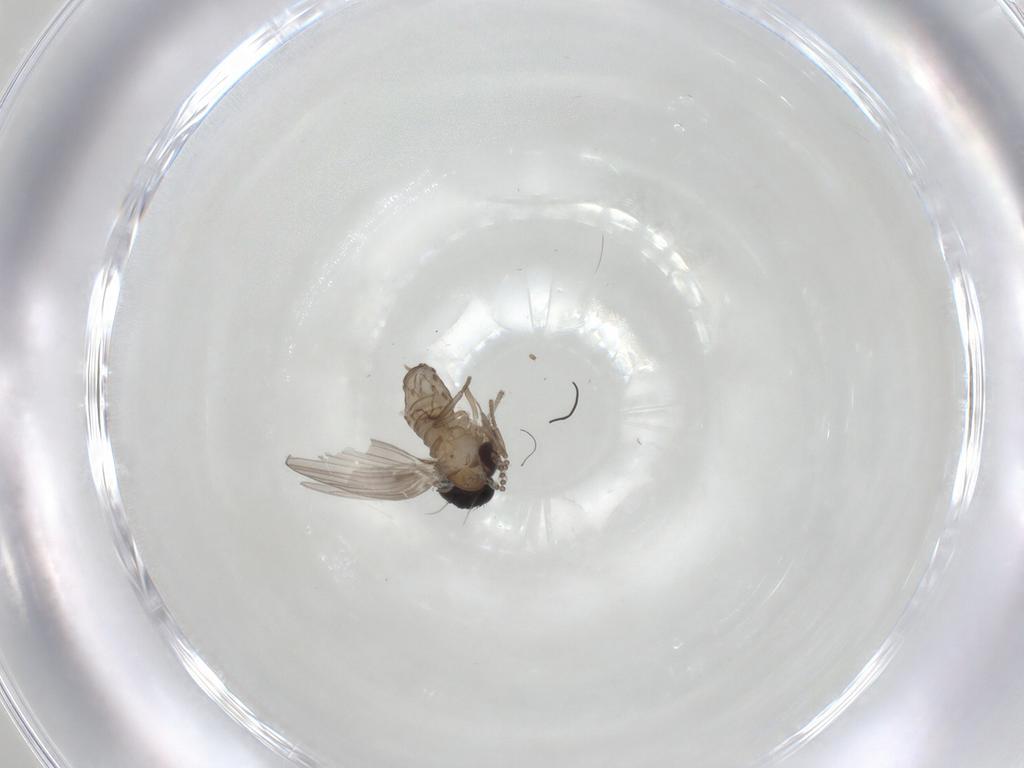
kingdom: Animalia
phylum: Arthropoda
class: Insecta
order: Diptera
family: Psychodidae
